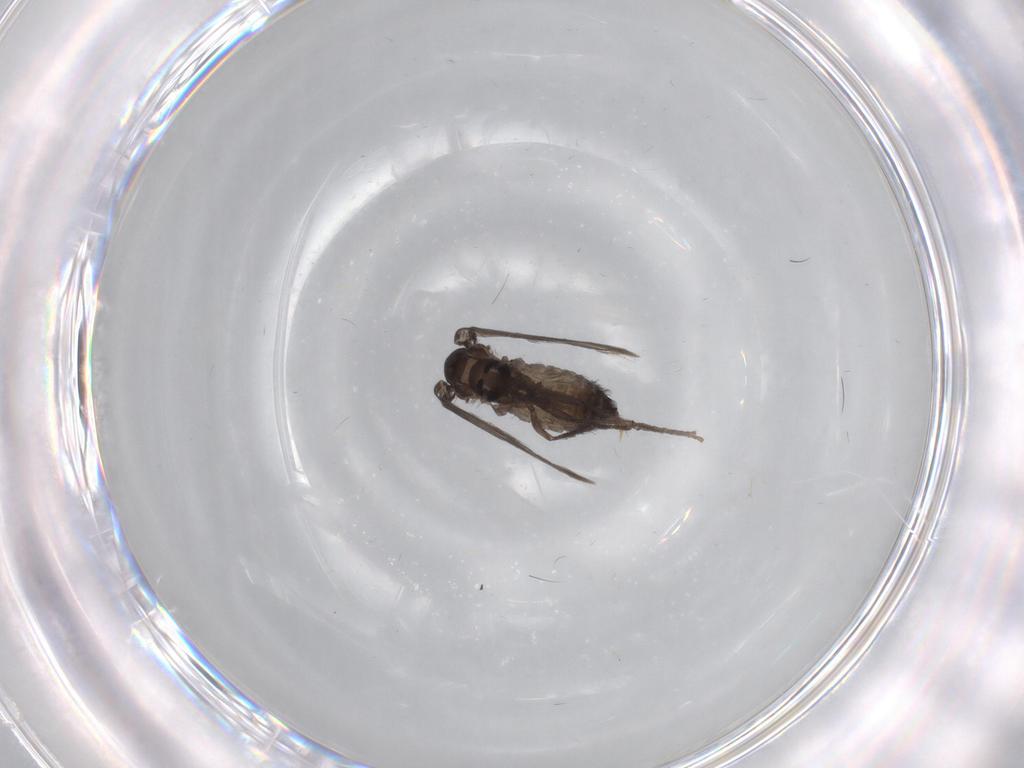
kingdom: Animalia
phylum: Arthropoda
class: Insecta
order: Diptera
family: Psychodidae
